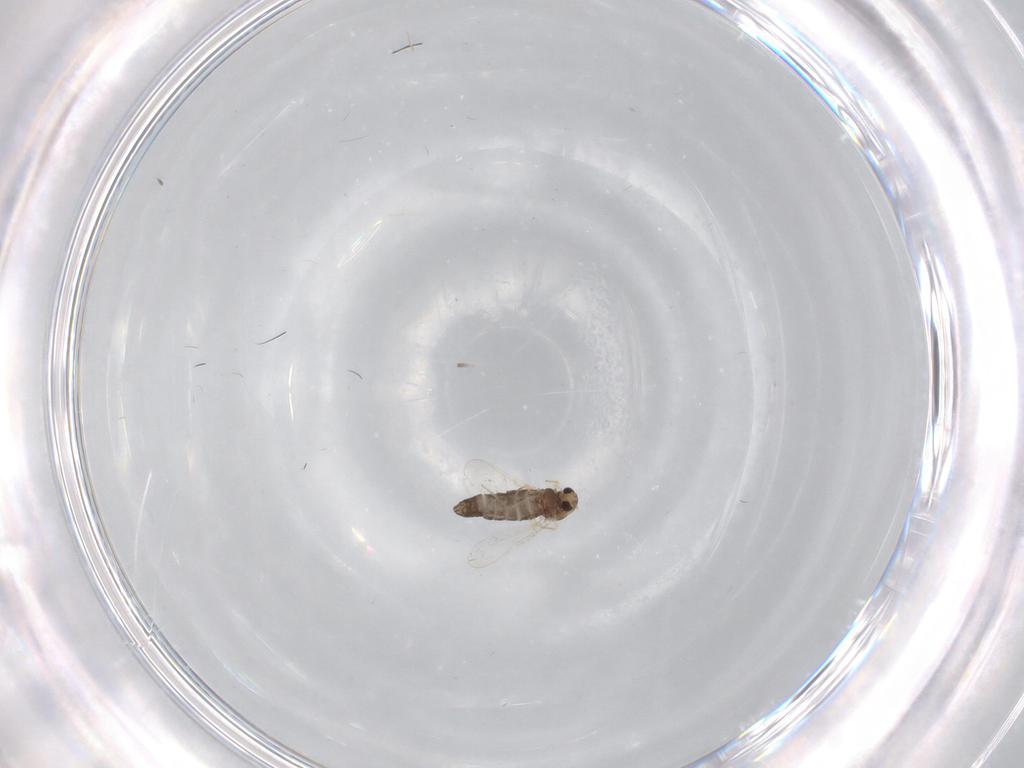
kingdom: Animalia
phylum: Arthropoda
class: Insecta
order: Diptera
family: Chironomidae
